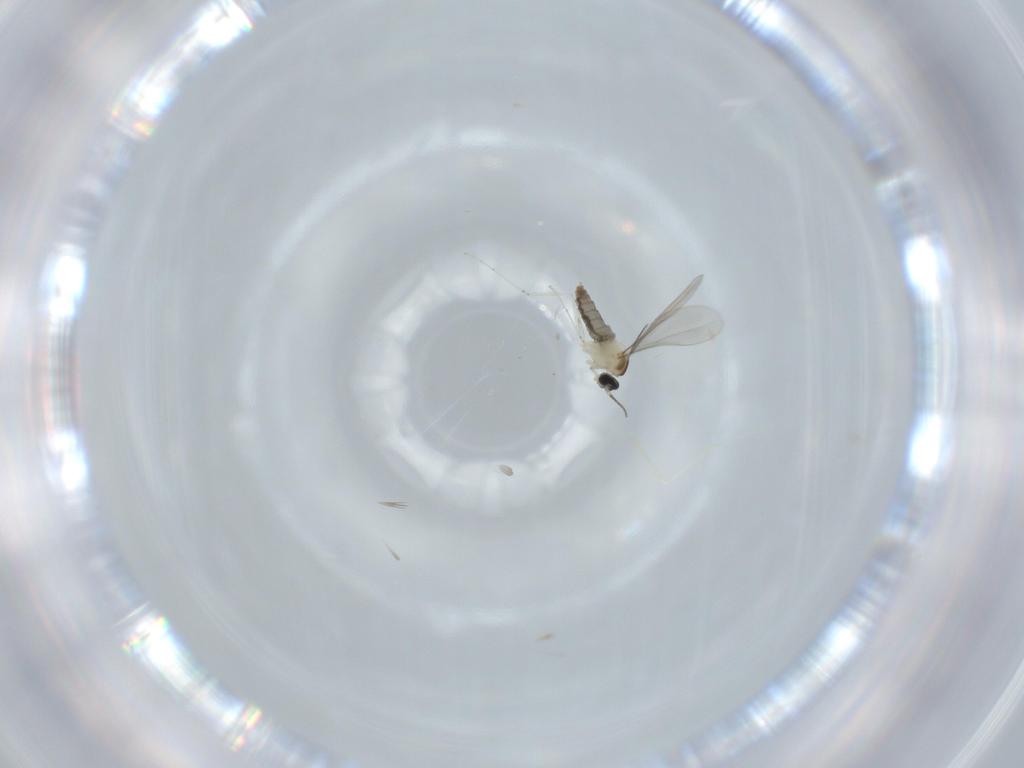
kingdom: Animalia
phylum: Arthropoda
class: Insecta
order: Diptera
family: Cecidomyiidae
